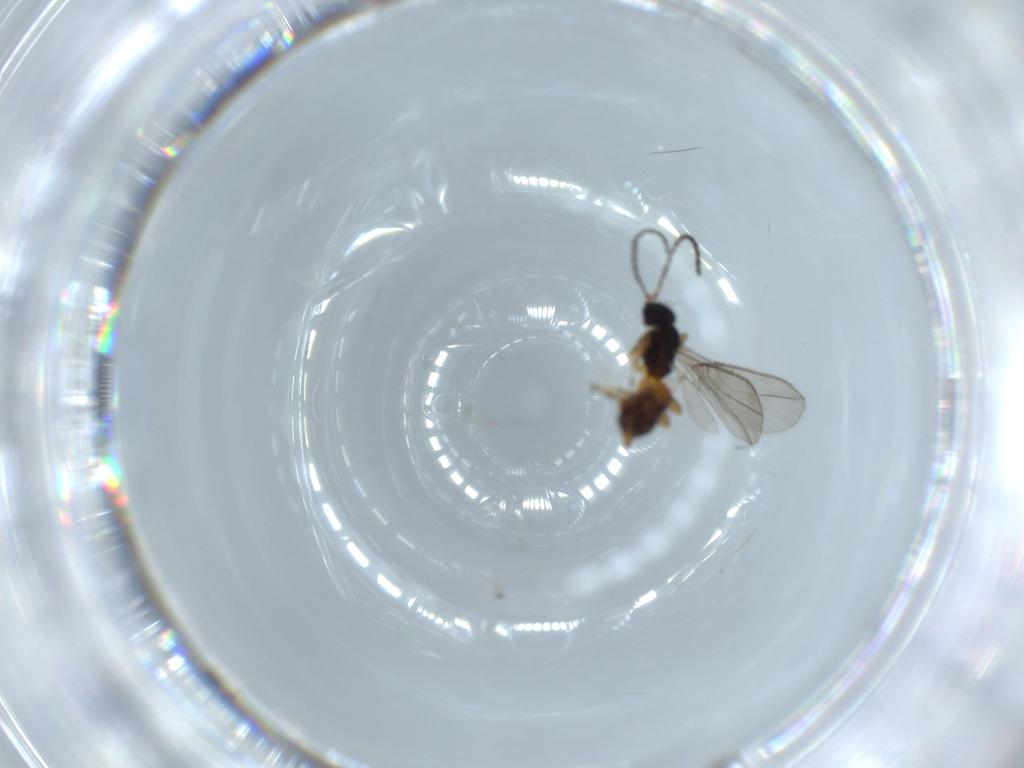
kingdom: Animalia
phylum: Arthropoda
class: Insecta
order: Hymenoptera
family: Braconidae
